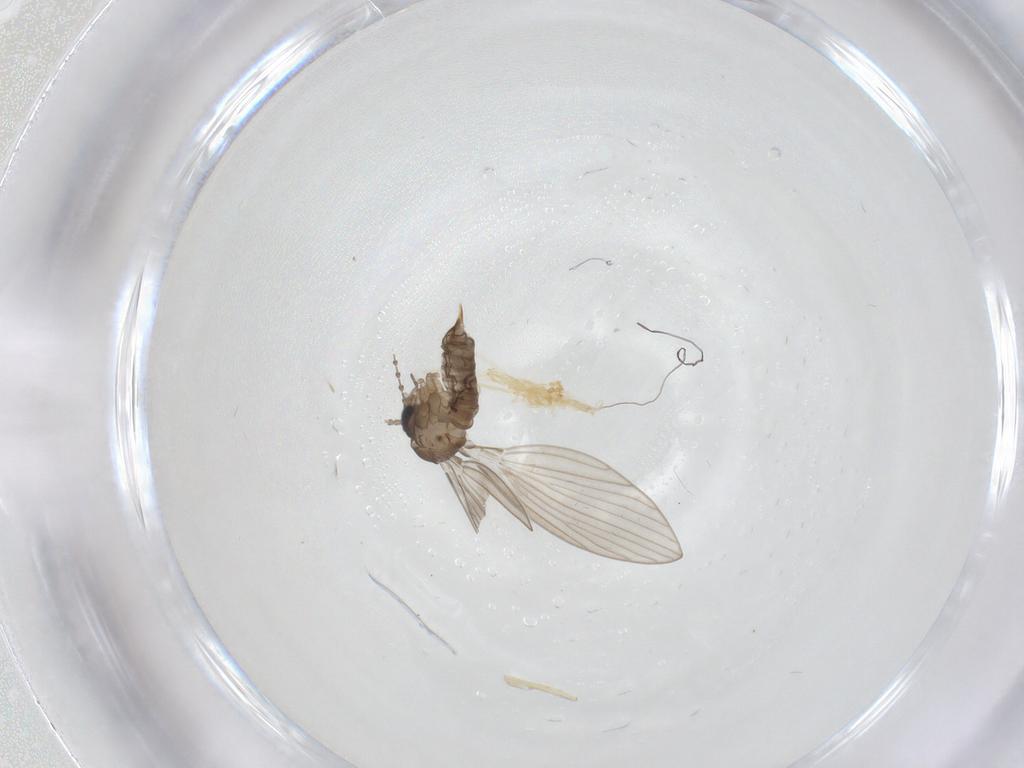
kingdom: Animalia
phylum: Arthropoda
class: Insecta
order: Diptera
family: Psychodidae
